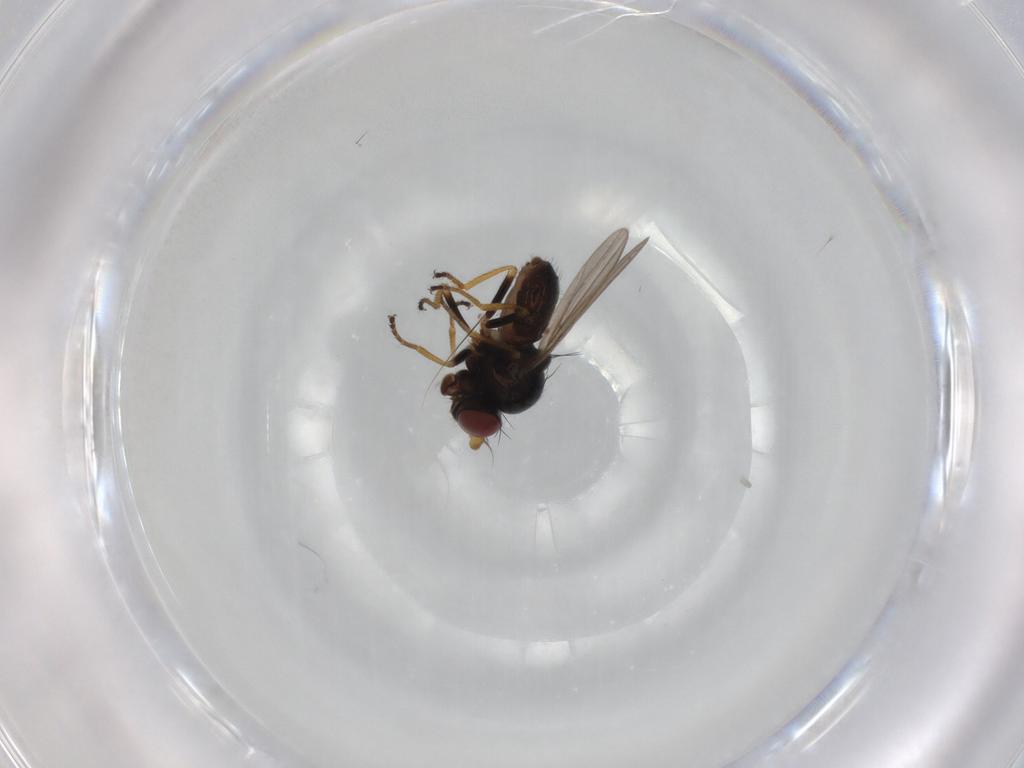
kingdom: Animalia
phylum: Arthropoda
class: Insecta
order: Diptera
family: Ephydridae
